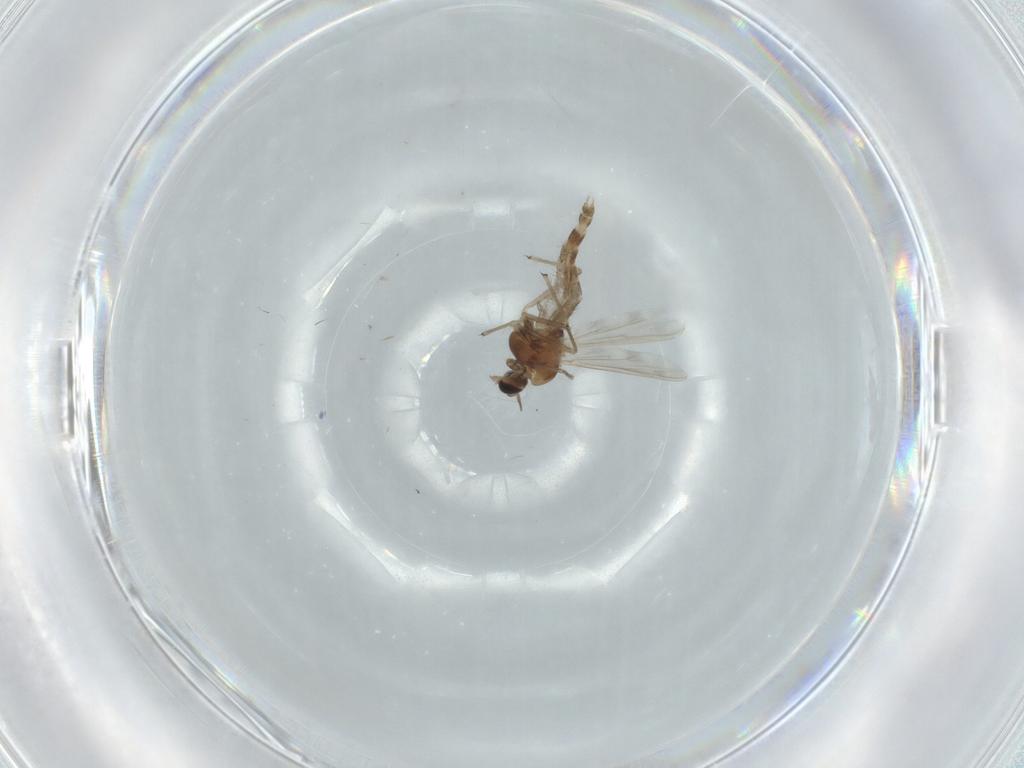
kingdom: Animalia
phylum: Arthropoda
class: Insecta
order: Diptera
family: Chironomidae
